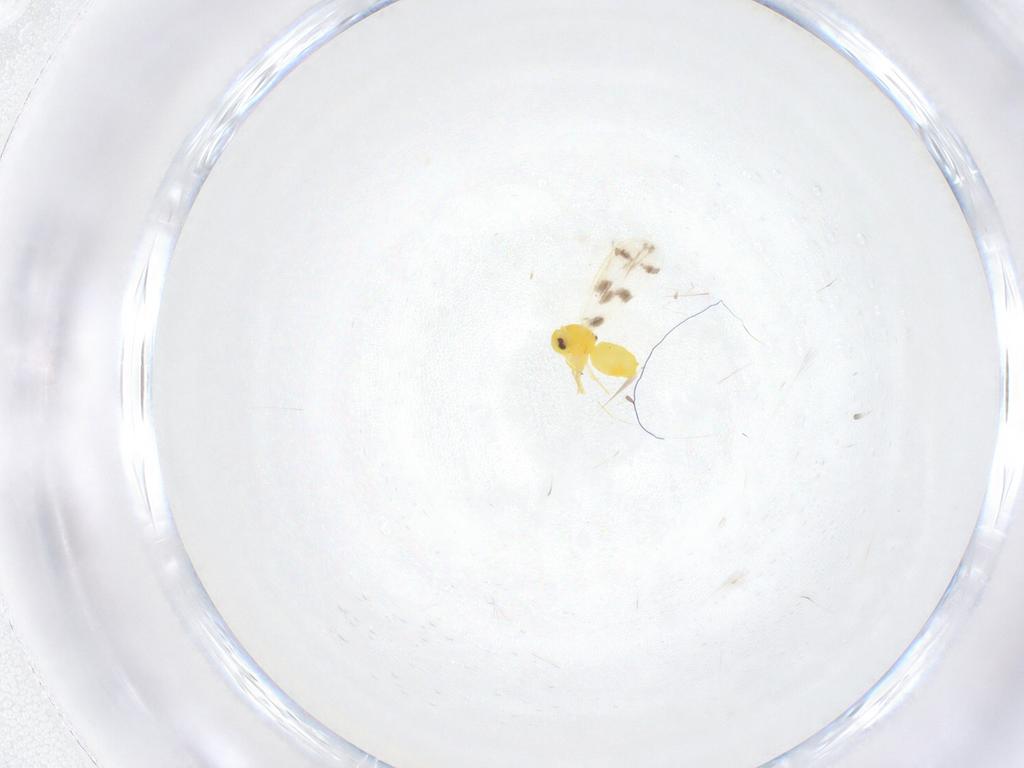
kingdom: Animalia
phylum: Arthropoda
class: Insecta
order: Hemiptera
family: Aleyrodidae
